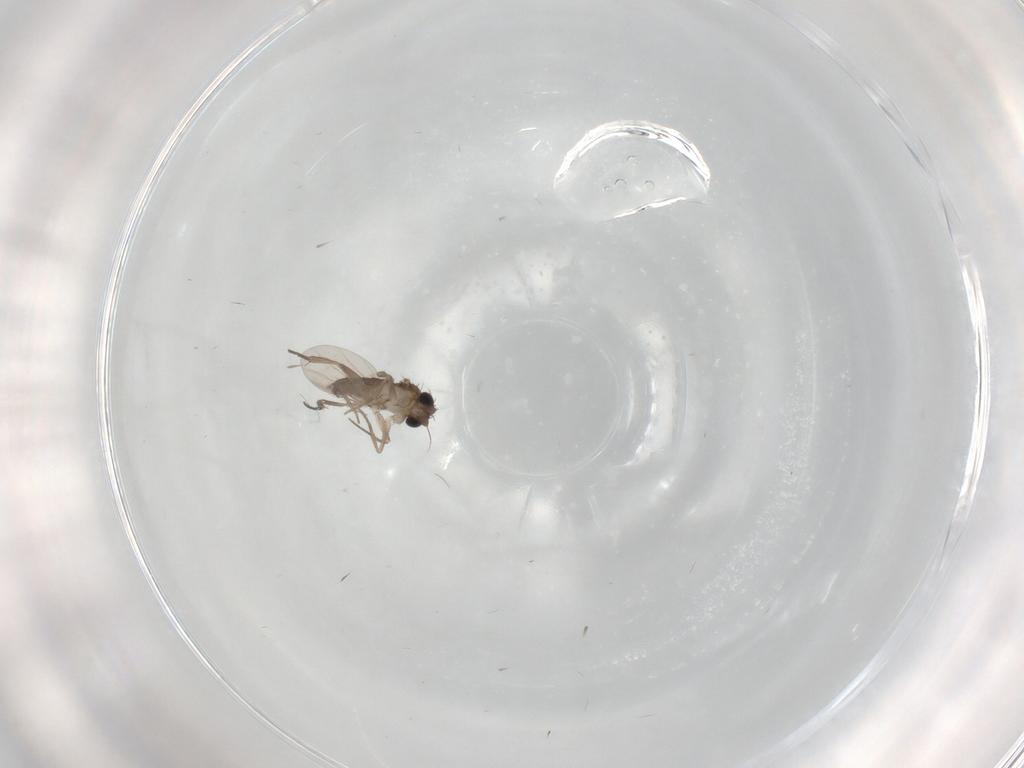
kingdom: Animalia
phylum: Arthropoda
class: Insecta
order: Diptera
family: Phoridae
